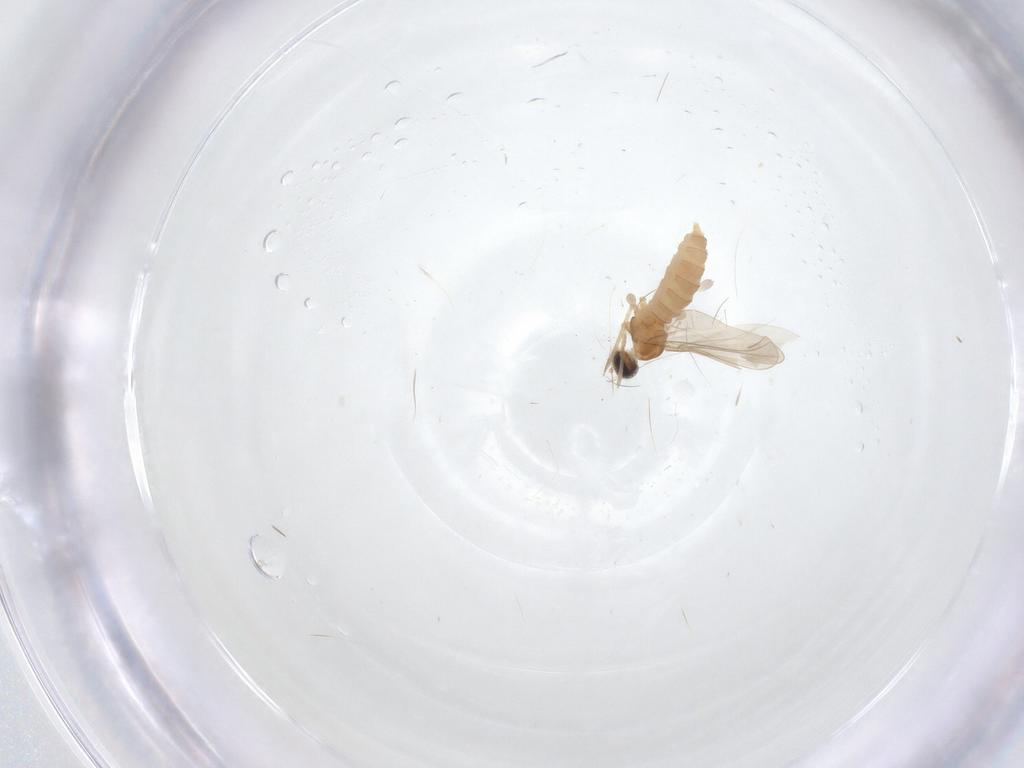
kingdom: Animalia
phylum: Arthropoda
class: Insecta
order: Diptera
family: Cecidomyiidae
